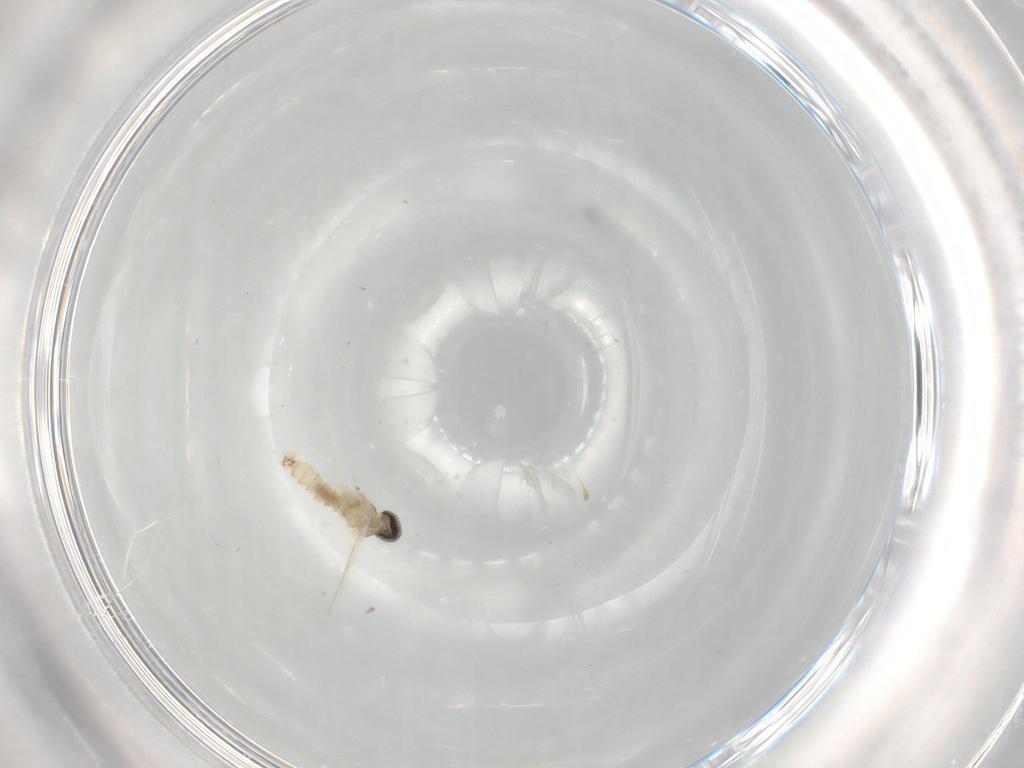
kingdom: Animalia
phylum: Arthropoda
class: Insecta
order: Diptera
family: Cecidomyiidae
